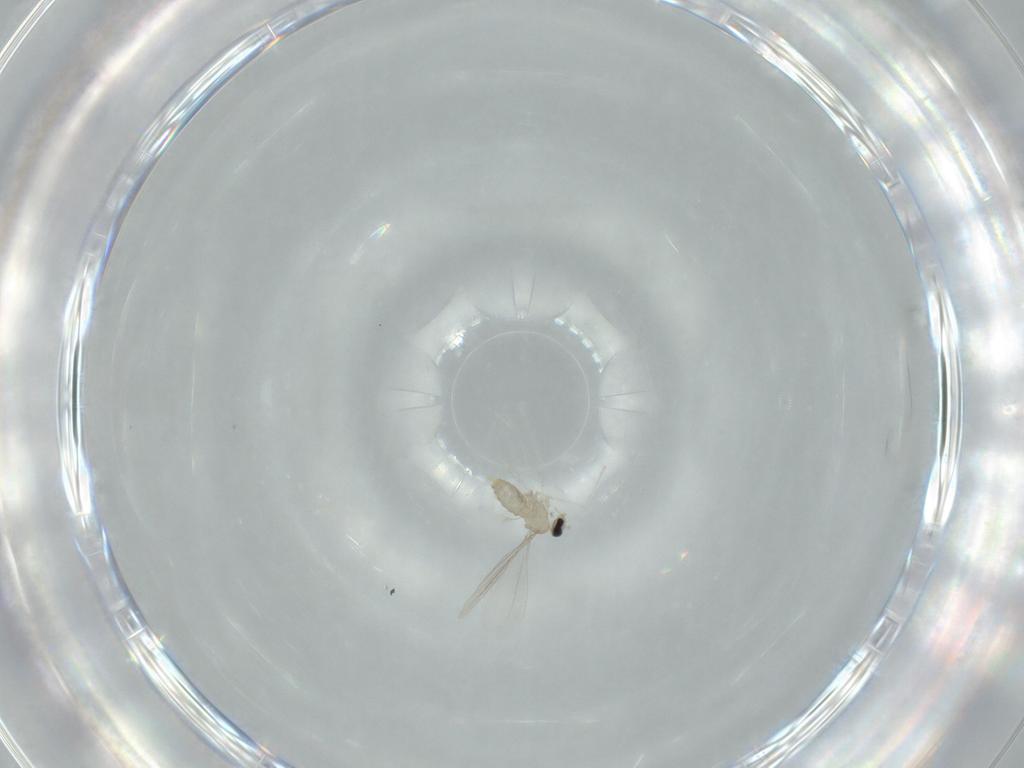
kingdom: Animalia
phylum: Arthropoda
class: Insecta
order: Diptera
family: Cecidomyiidae
